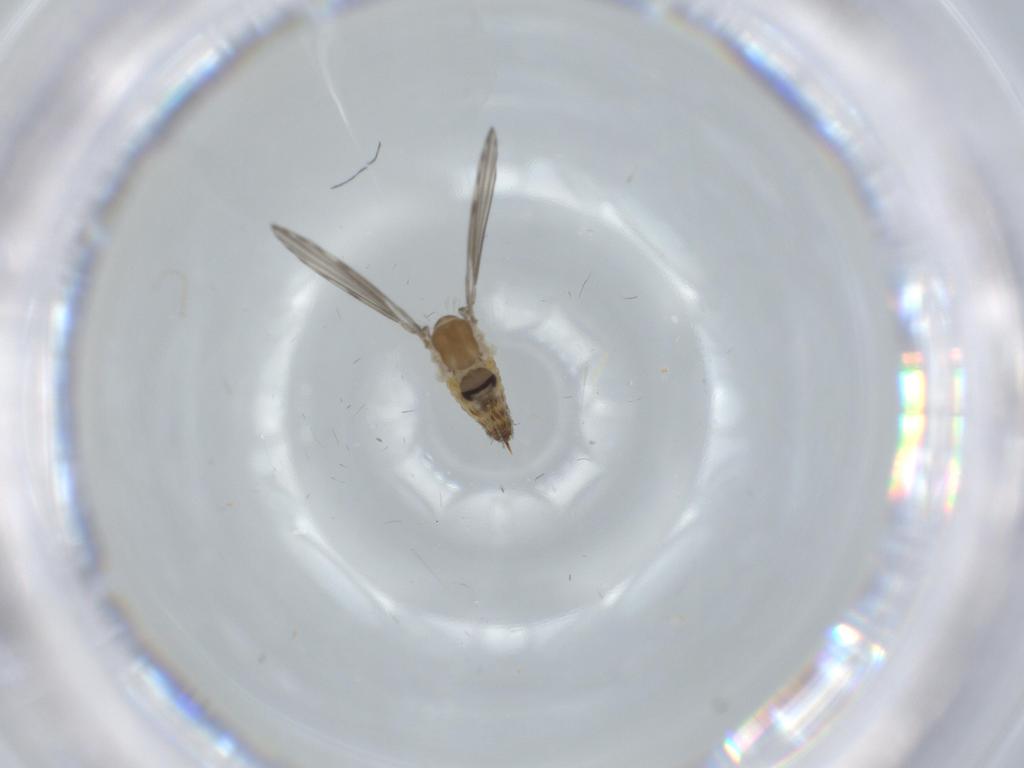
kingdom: Animalia
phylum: Arthropoda
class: Insecta
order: Diptera
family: Psychodidae
